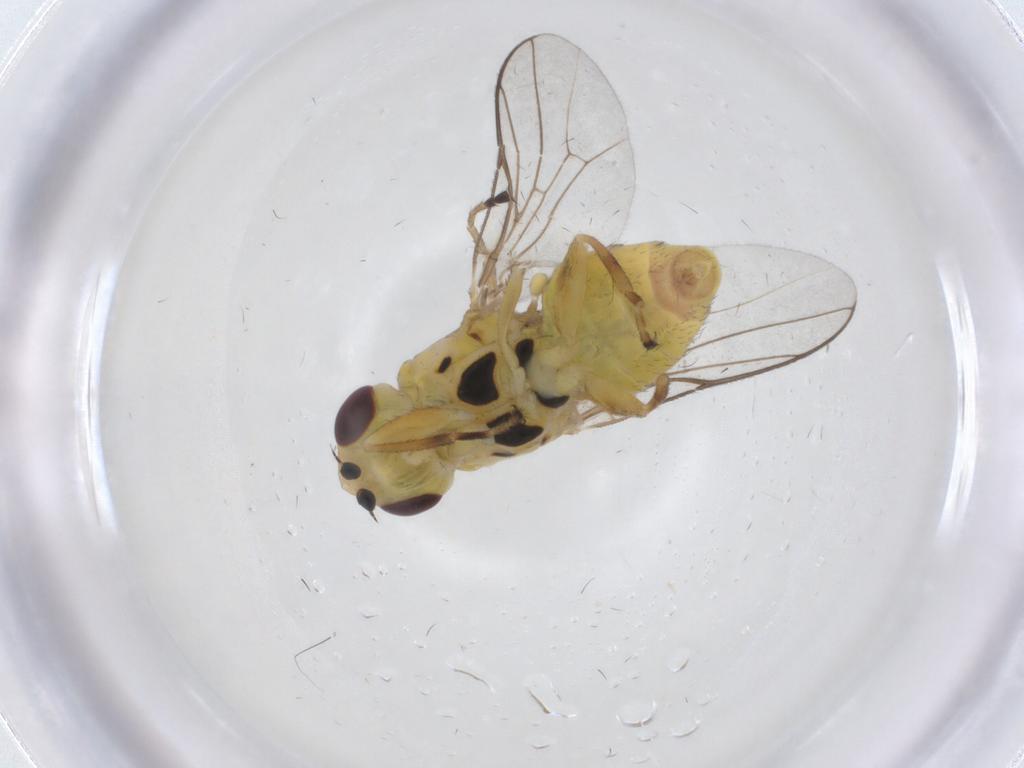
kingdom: Animalia
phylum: Arthropoda
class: Insecta
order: Diptera
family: Chloropidae
